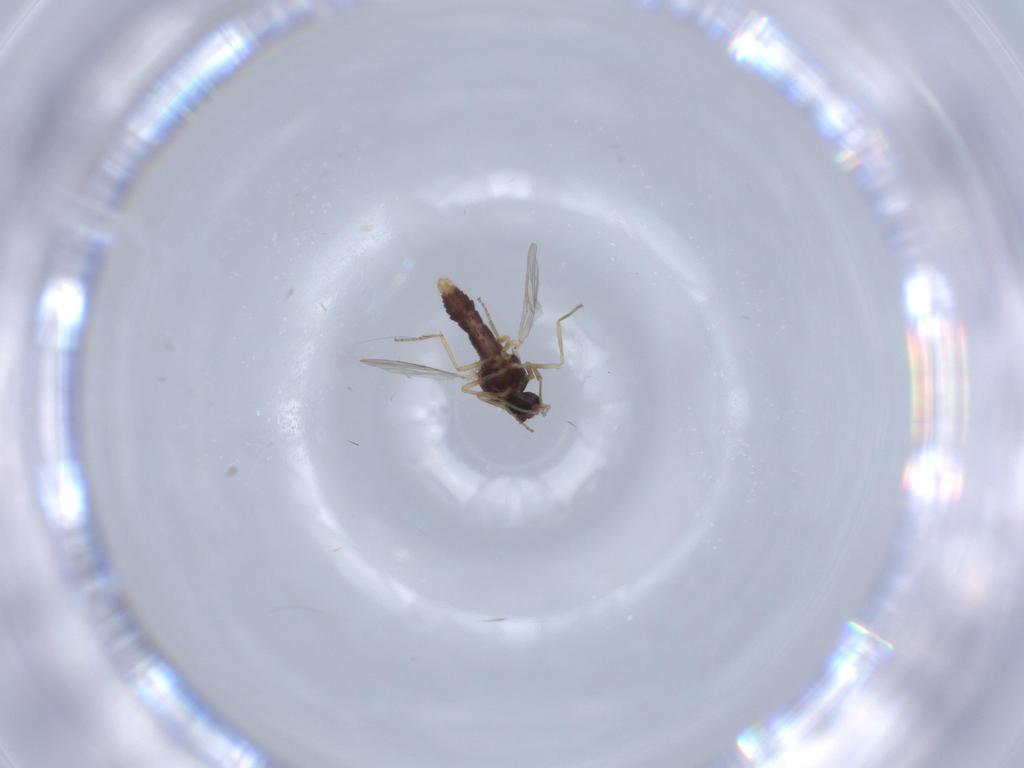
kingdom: Animalia
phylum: Arthropoda
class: Insecta
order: Diptera
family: Ceratopogonidae
